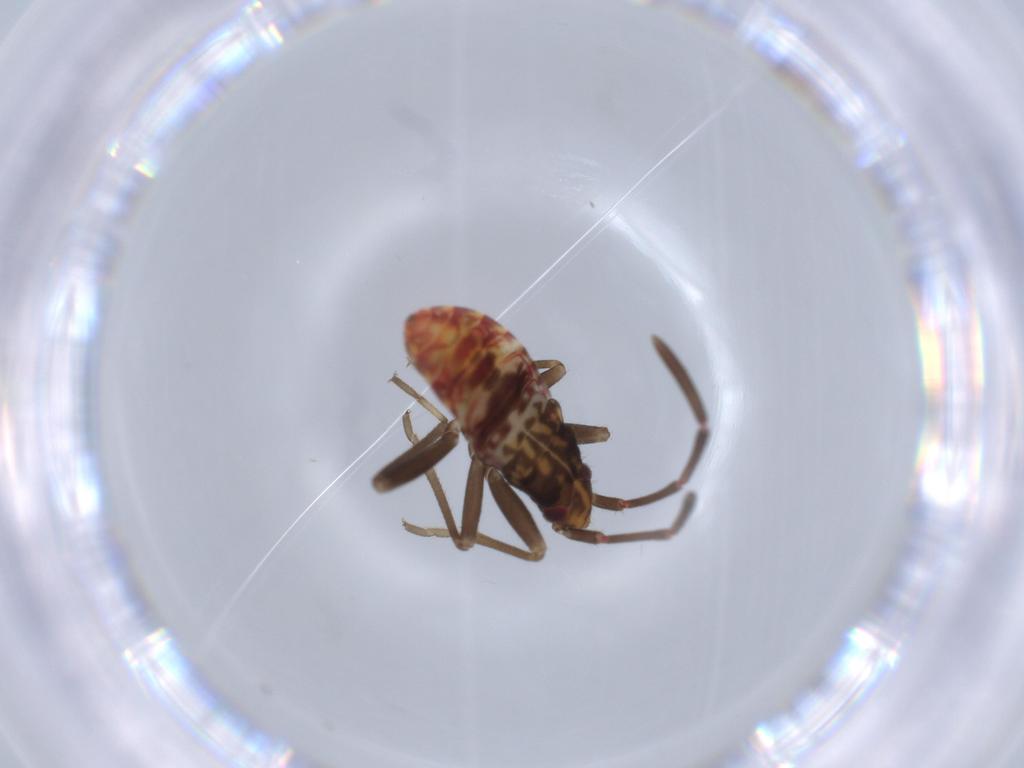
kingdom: Animalia
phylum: Arthropoda
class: Insecta
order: Hemiptera
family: Rhyparochromidae
